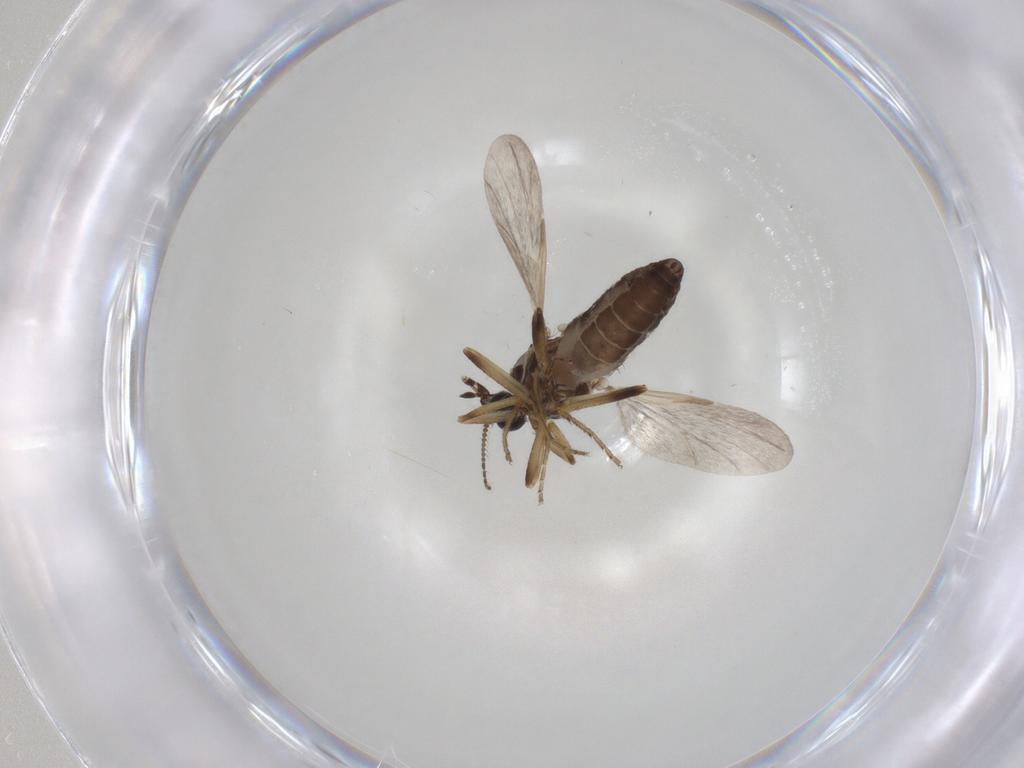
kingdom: Animalia
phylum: Arthropoda
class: Insecta
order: Diptera
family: Ceratopogonidae
